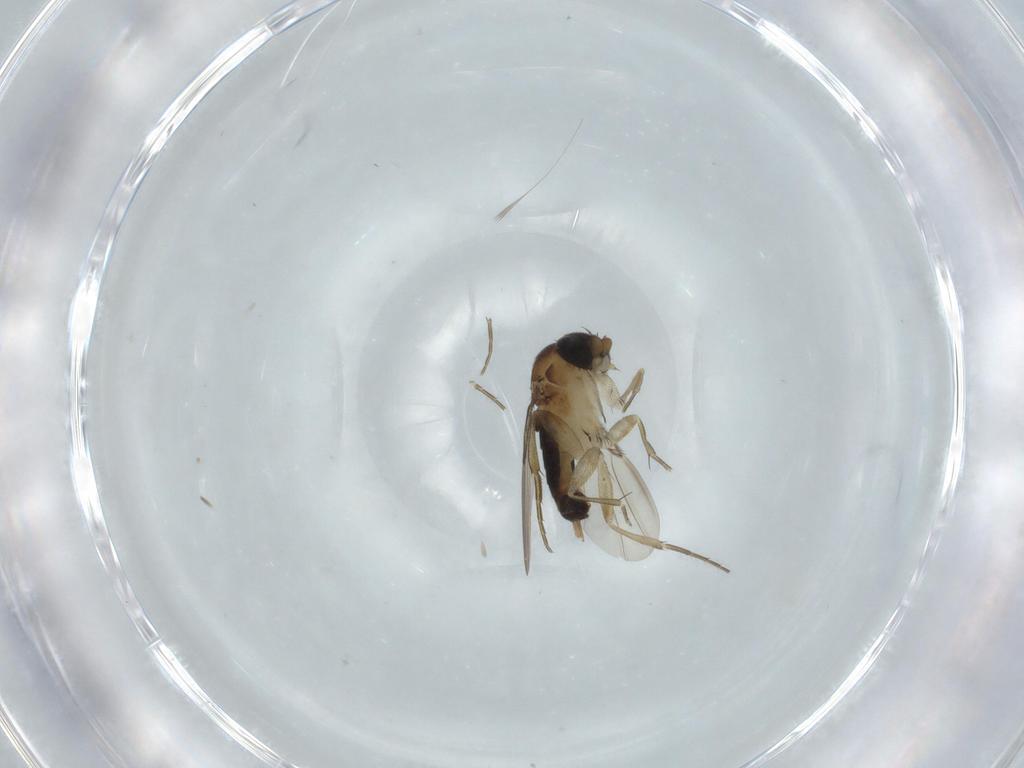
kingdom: Animalia
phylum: Arthropoda
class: Insecta
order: Diptera
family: Phoridae
